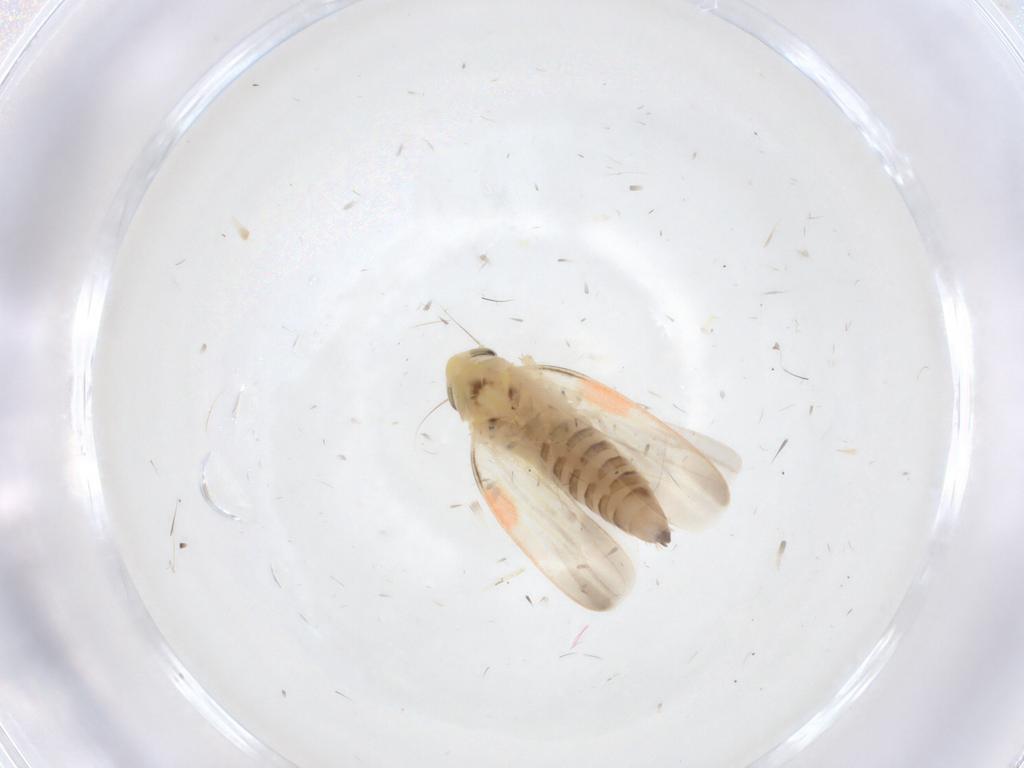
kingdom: Animalia
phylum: Arthropoda
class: Insecta
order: Hemiptera
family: Cicadellidae
